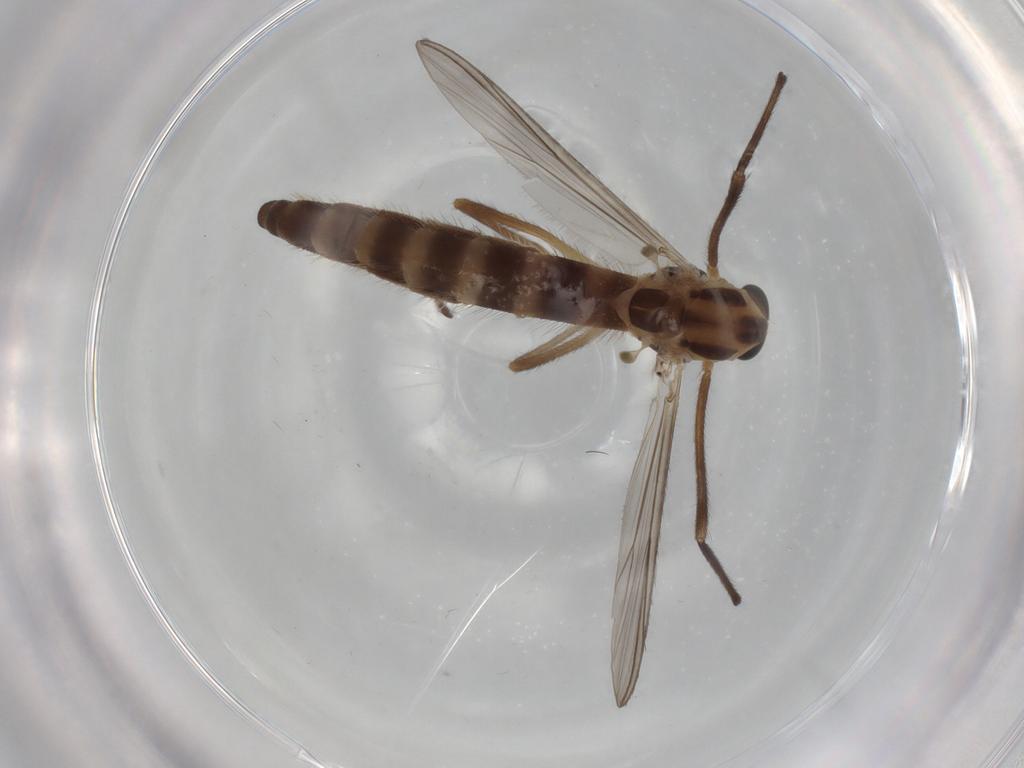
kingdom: Animalia
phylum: Arthropoda
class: Insecta
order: Diptera
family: Chironomidae
